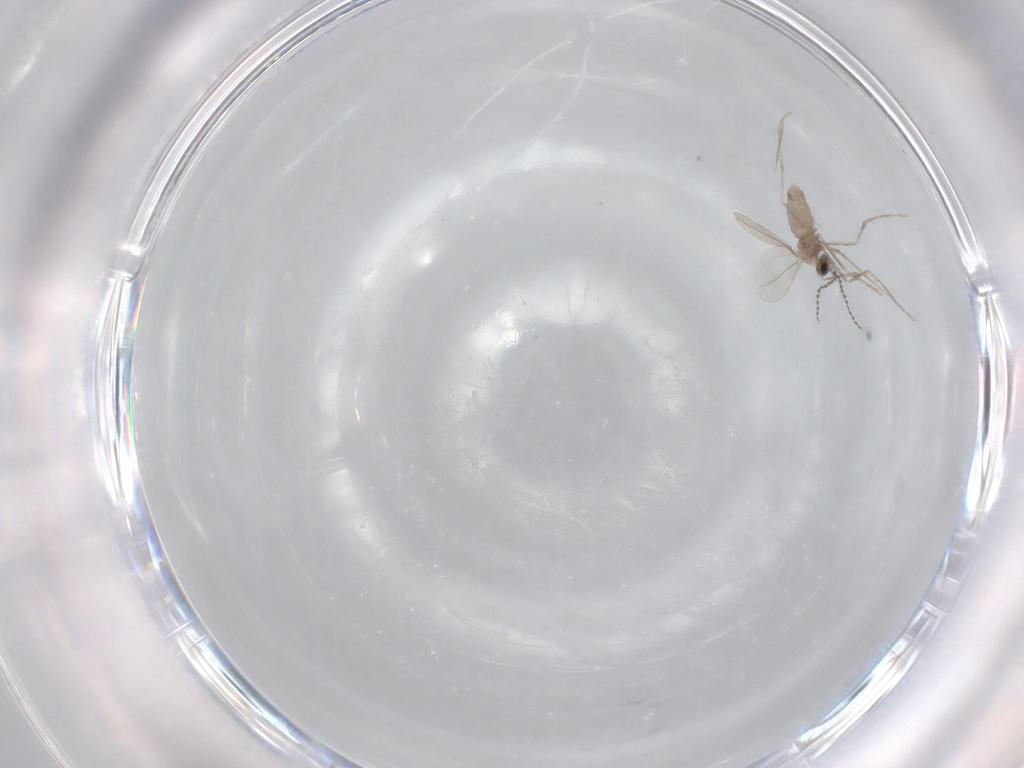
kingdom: Animalia
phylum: Arthropoda
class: Insecta
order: Diptera
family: Cecidomyiidae
